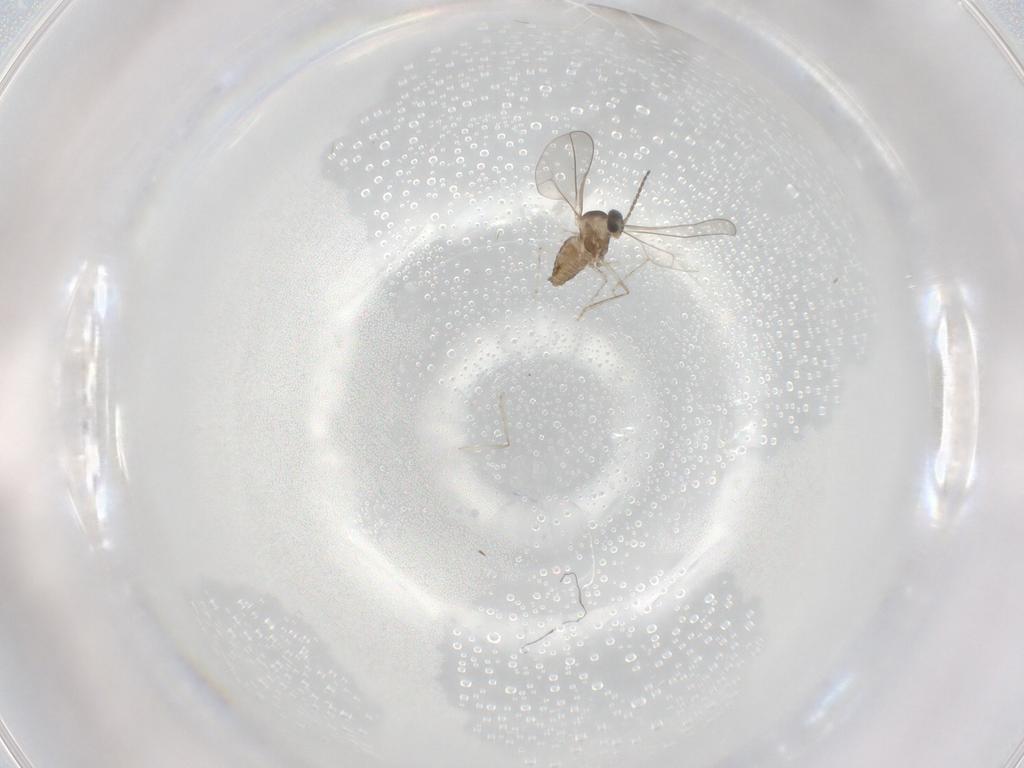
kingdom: Animalia
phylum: Arthropoda
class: Insecta
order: Diptera
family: Cecidomyiidae
